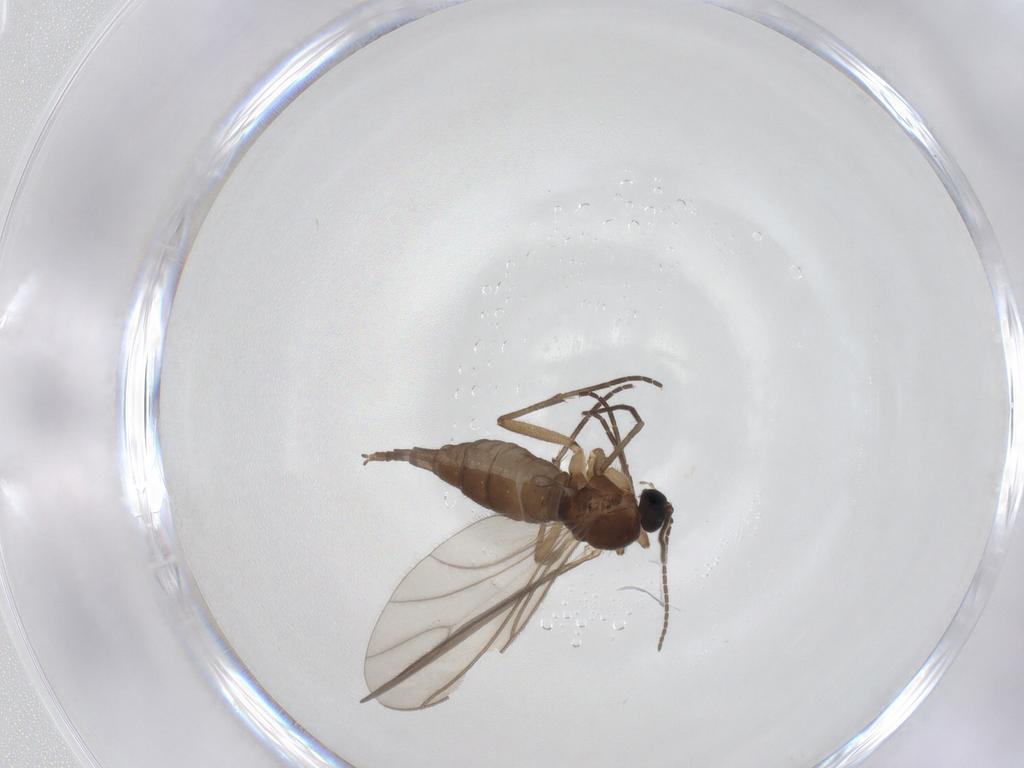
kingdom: Animalia
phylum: Arthropoda
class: Insecta
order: Diptera
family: Sciaridae
